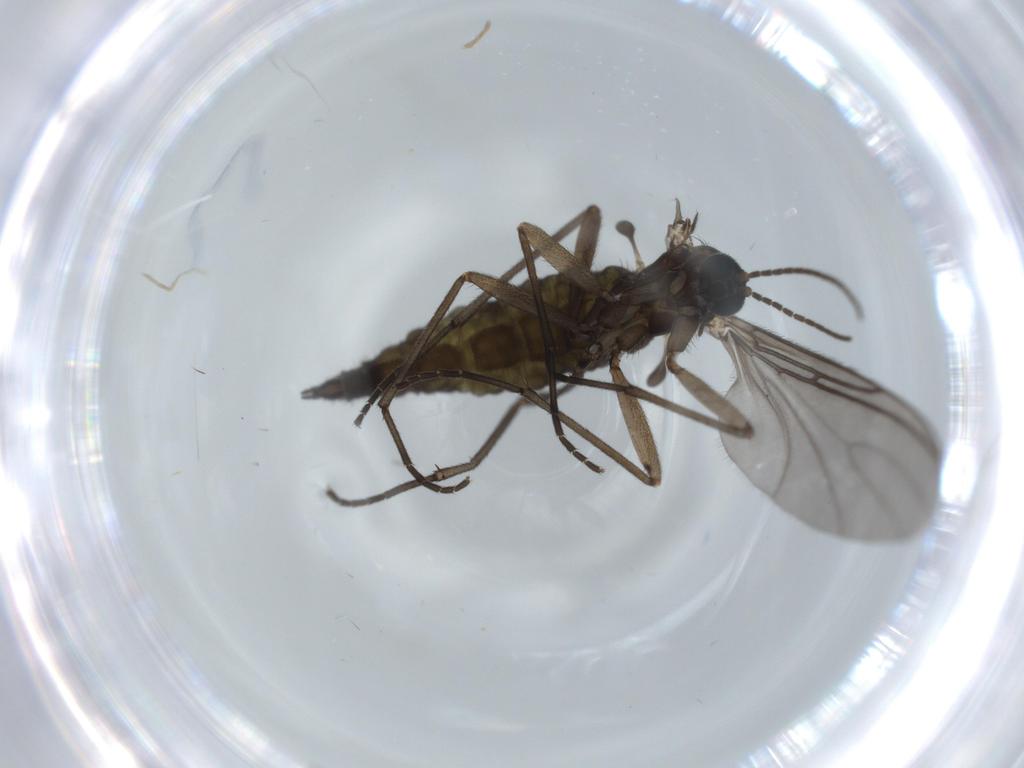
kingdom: Animalia
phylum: Arthropoda
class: Insecta
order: Diptera
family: Sciaridae
